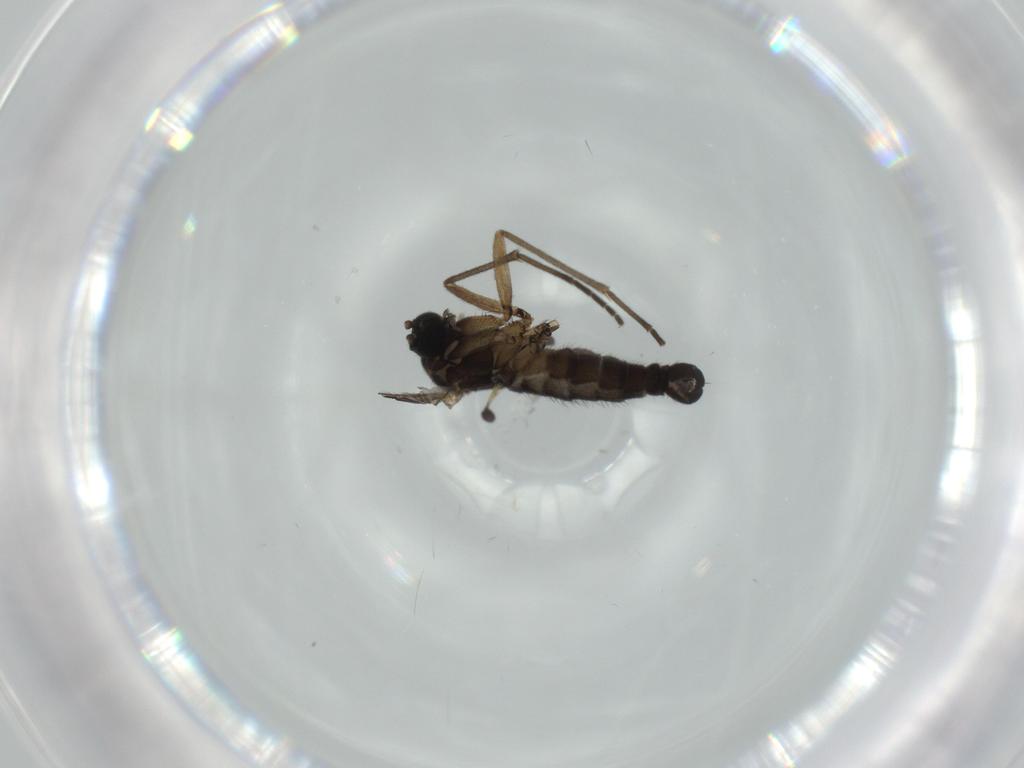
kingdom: Animalia
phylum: Arthropoda
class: Insecta
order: Diptera
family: Sciaridae
